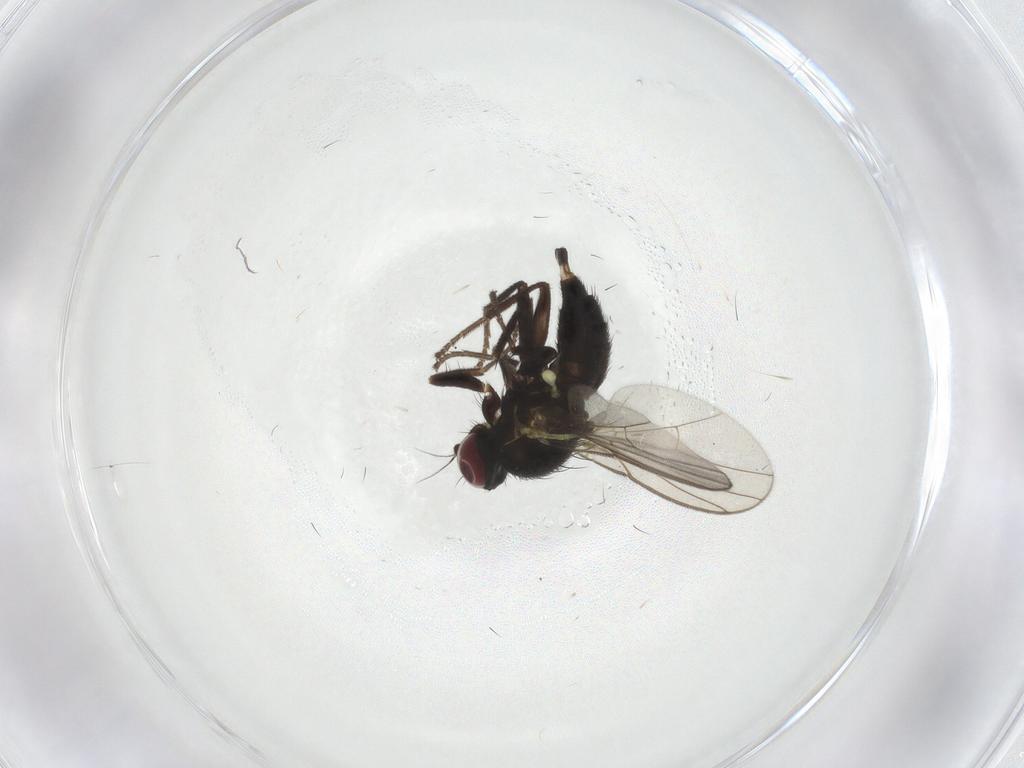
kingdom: Animalia
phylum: Arthropoda
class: Insecta
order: Diptera
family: Agromyzidae
